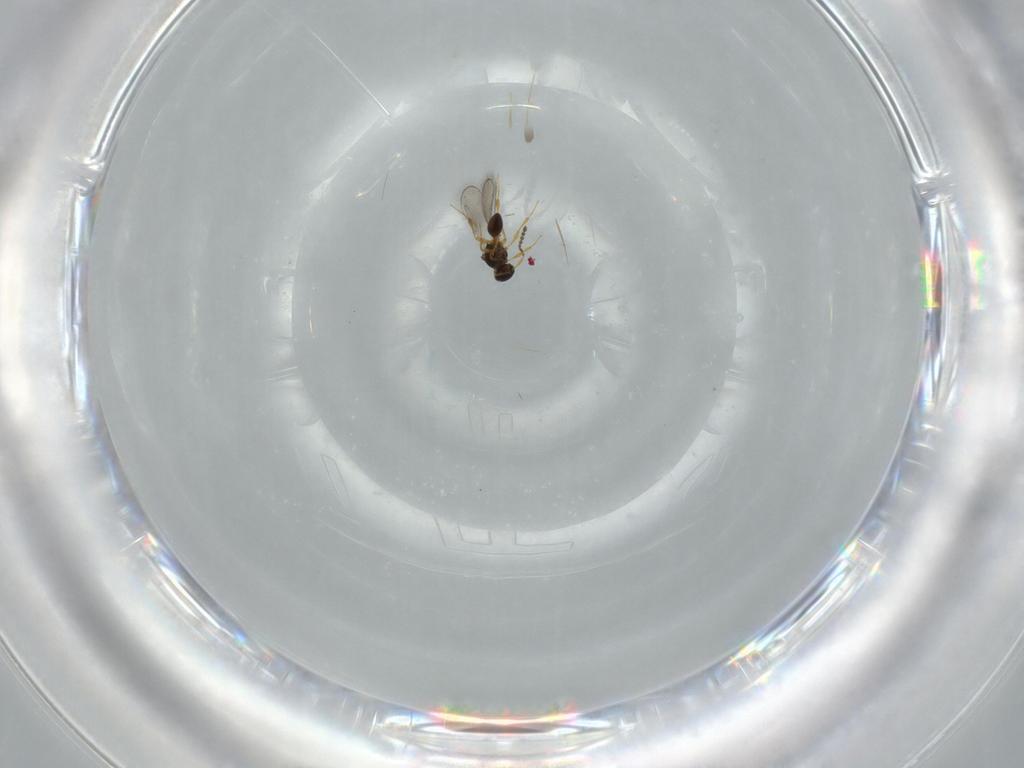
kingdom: Animalia
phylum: Arthropoda
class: Insecta
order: Hymenoptera
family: Platygastridae
